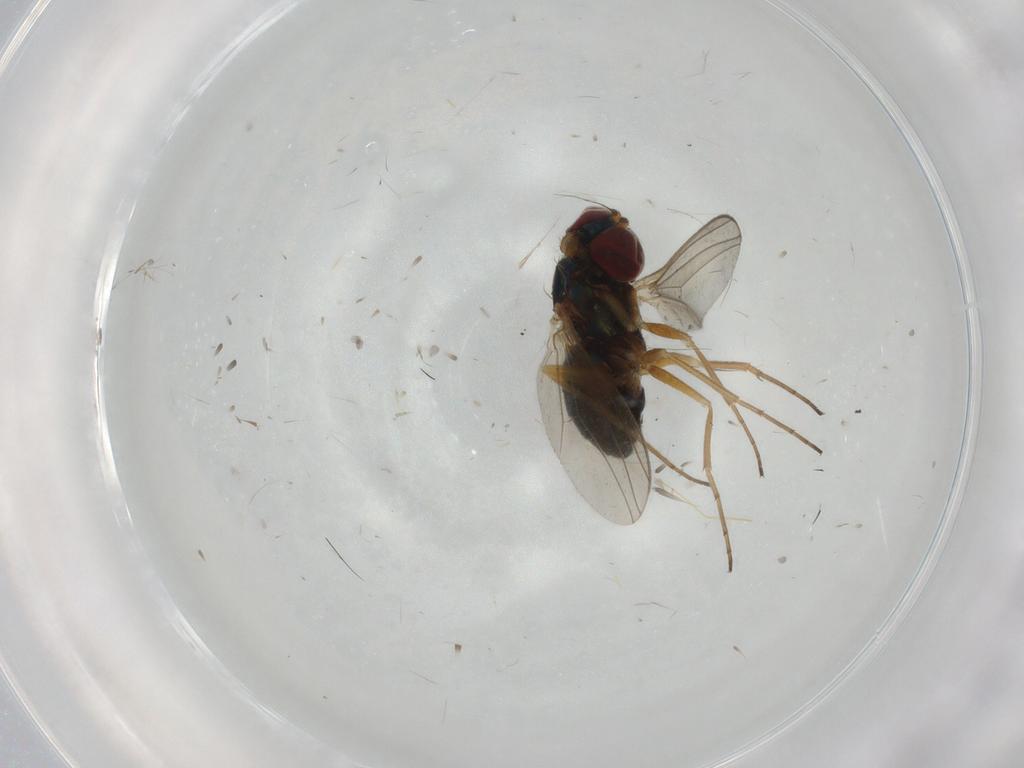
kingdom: Animalia
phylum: Arthropoda
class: Insecta
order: Diptera
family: Dolichopodidae
